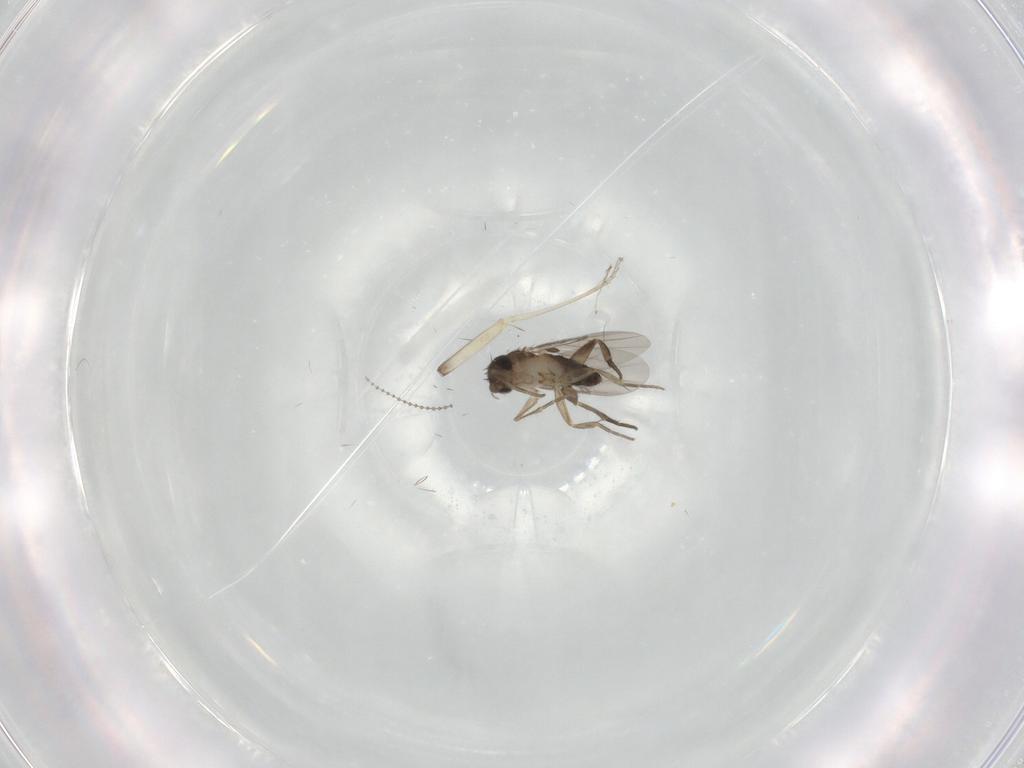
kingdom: Animalia
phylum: Arthropoda
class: Insecta
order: Diptera
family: Phoridae
